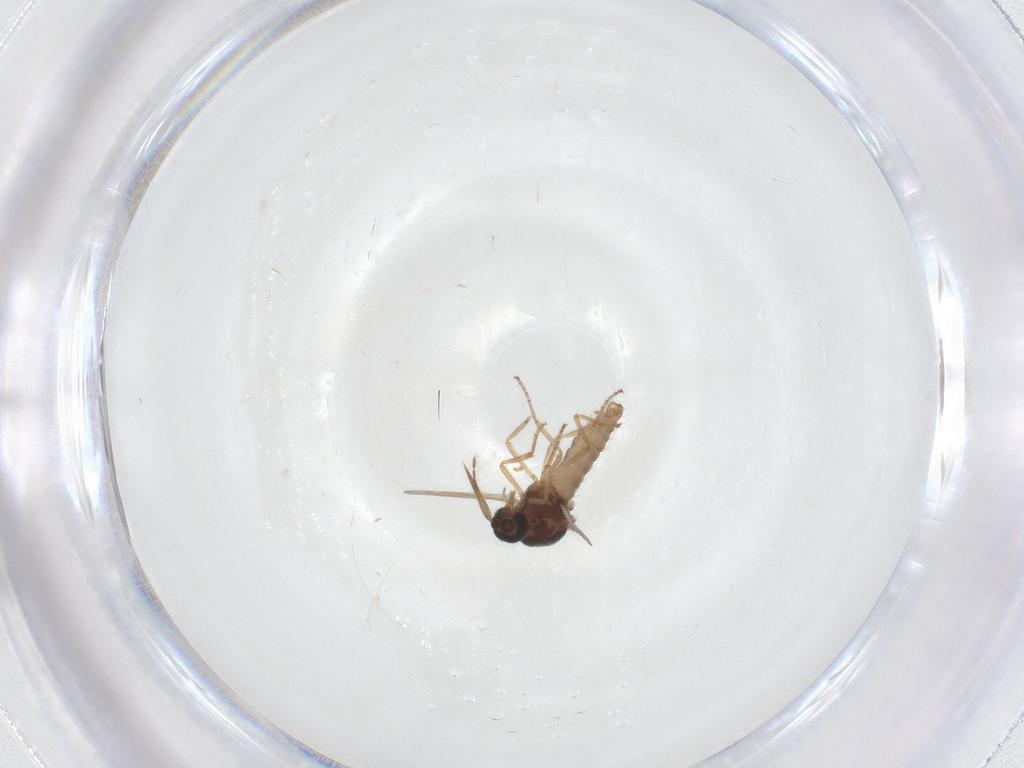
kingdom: Animalia
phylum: Arthropoda
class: Insecta
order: Diptera
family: Ceratopogonidae
